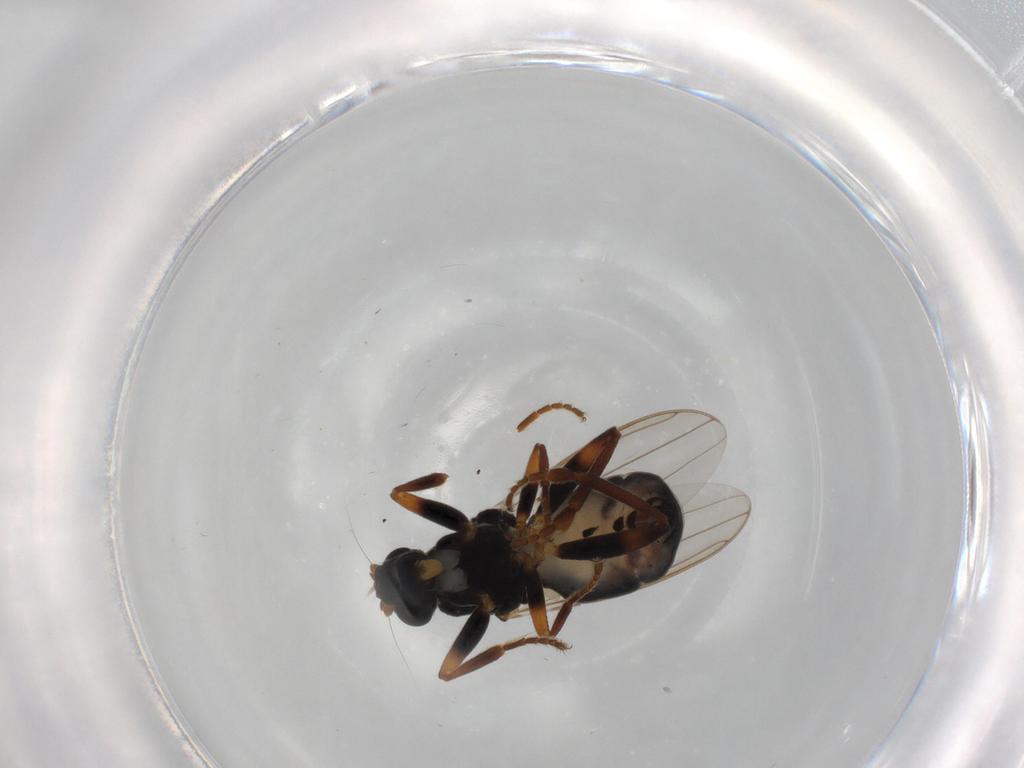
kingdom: Animalia
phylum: Arthropoda
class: Insecta
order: Diptera
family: Sphaeroceridae
